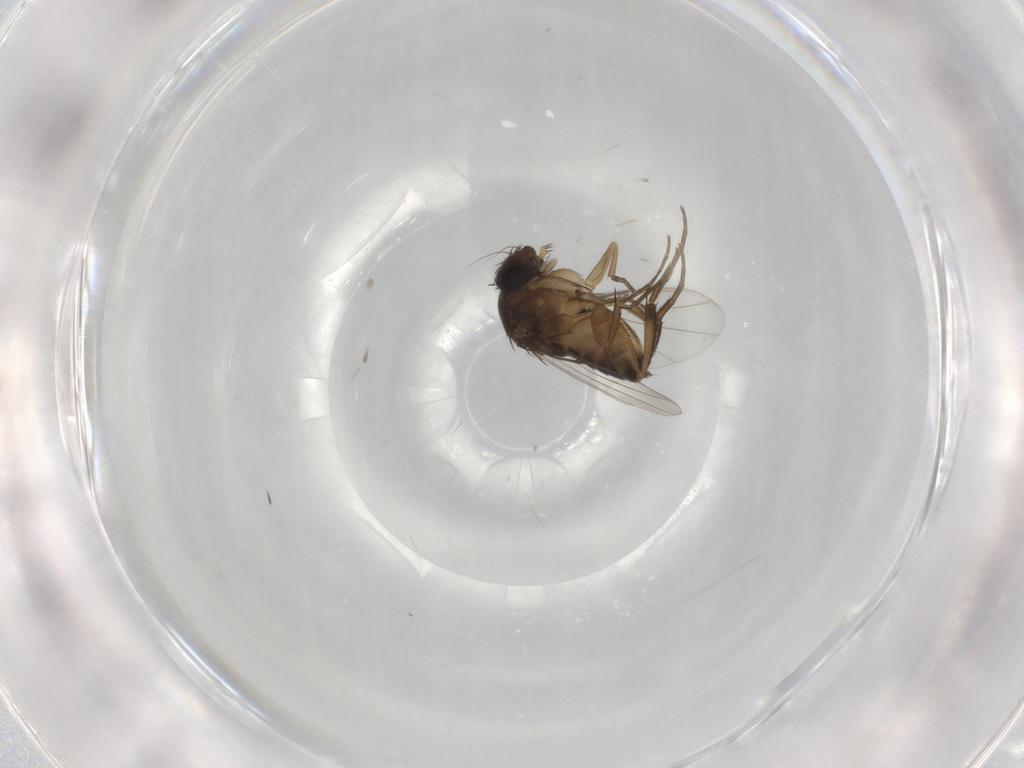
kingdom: Animalia
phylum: Arthropoda
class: Insecta
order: Diptera
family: Phoridae
